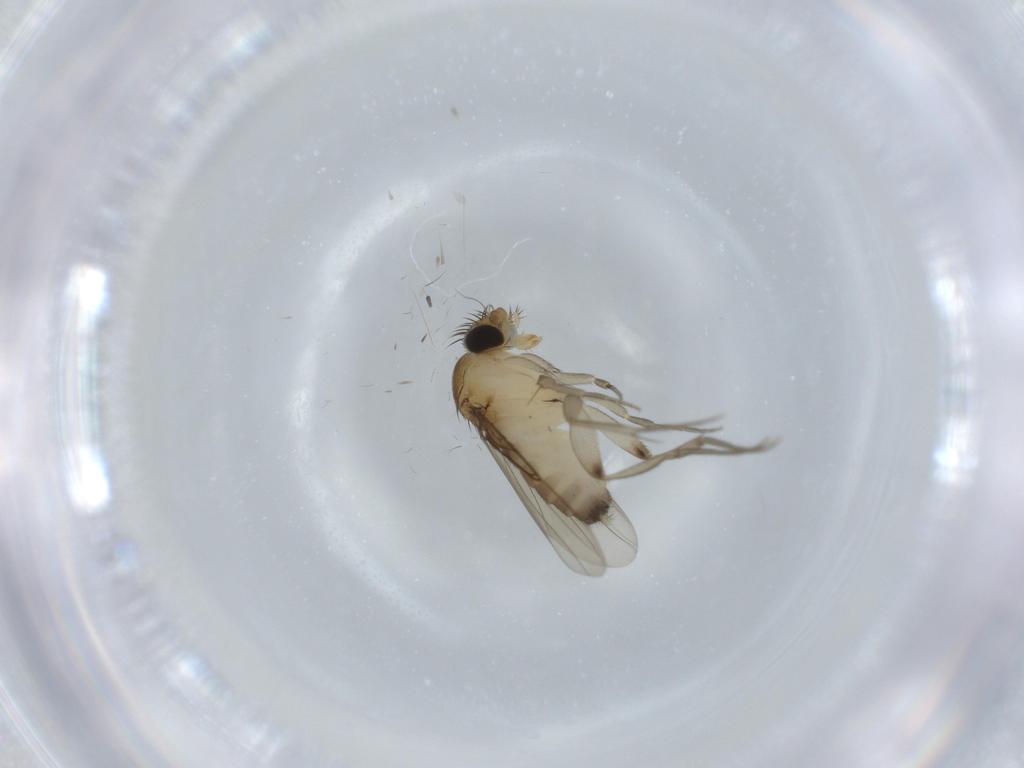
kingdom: Animalia
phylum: Arthropoda
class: Insecta
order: Diptera
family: Phoridae
